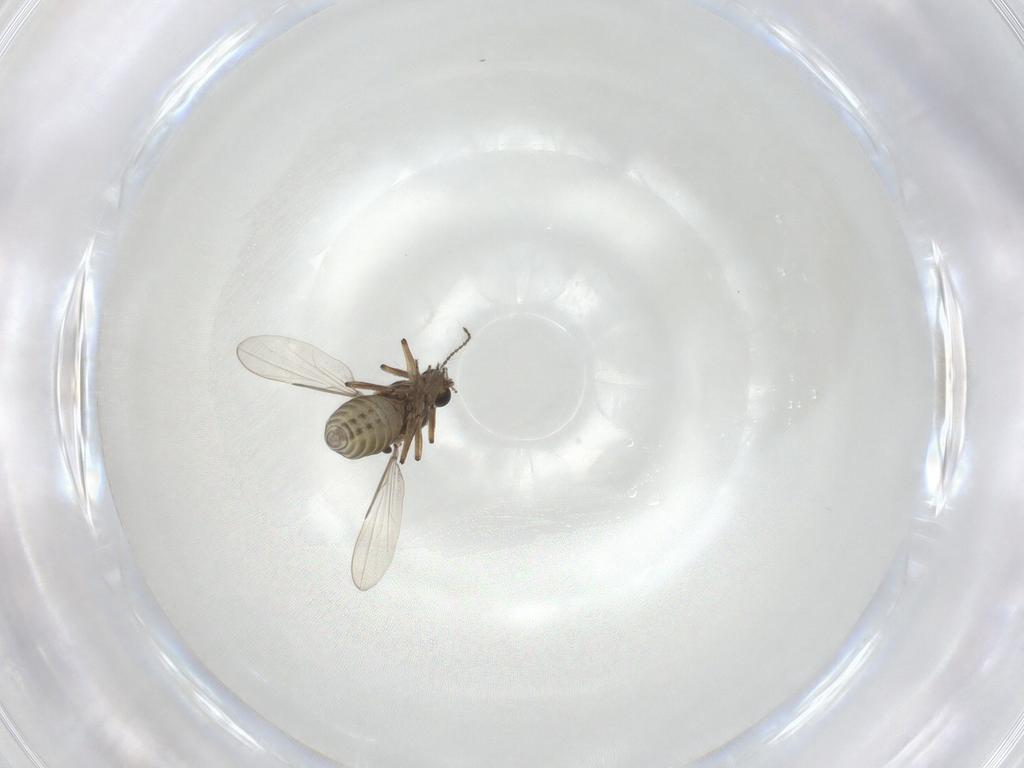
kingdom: Animalia
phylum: Arthropoda
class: Insecta
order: Diptera
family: Ceratopogonidae
